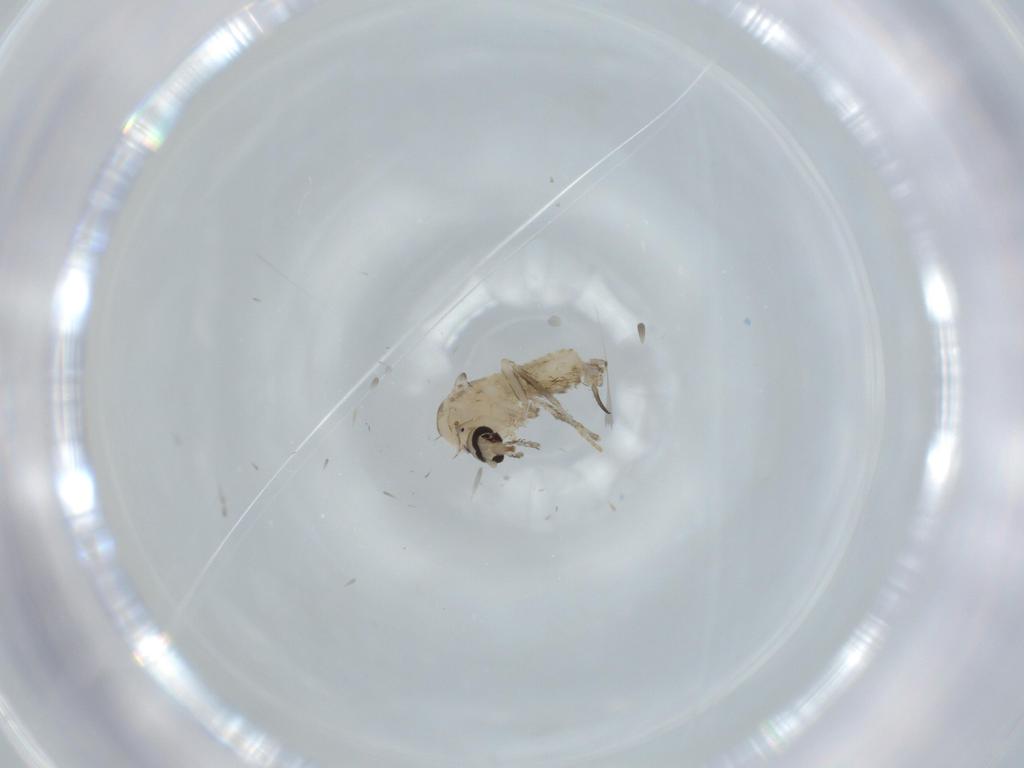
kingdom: Animalia
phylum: Arthropoda
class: Insecta
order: Diptera
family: Psychodidae
